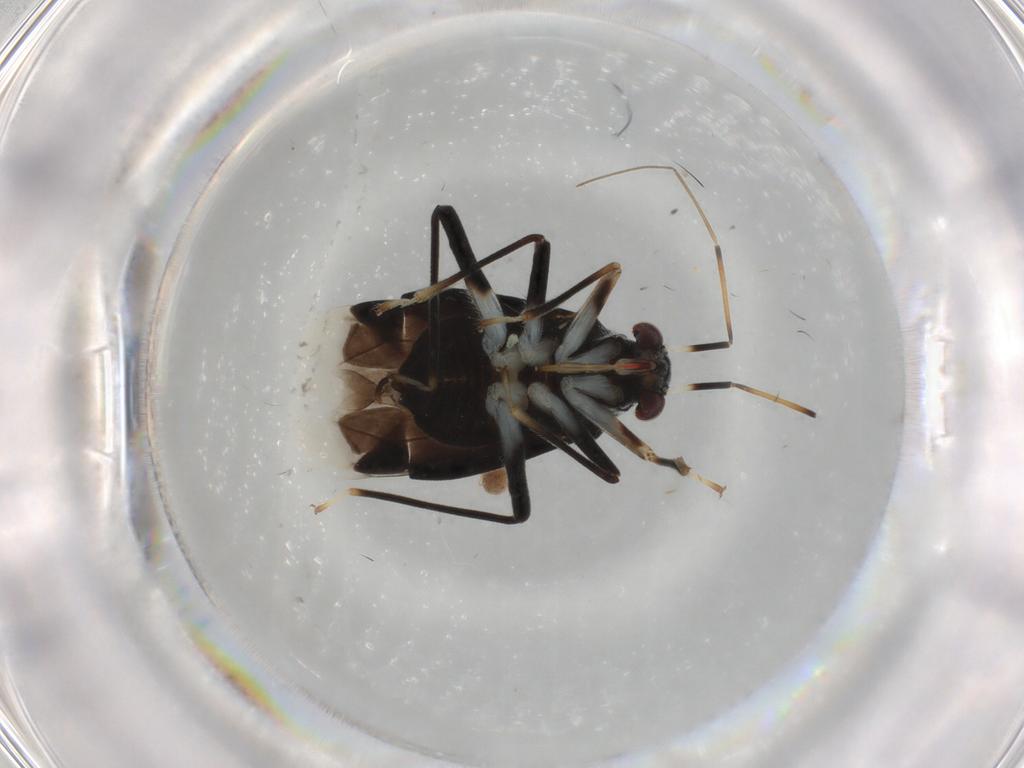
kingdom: Animalia
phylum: Arthropoda
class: Insecta
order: Hemiptera
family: Miridae
